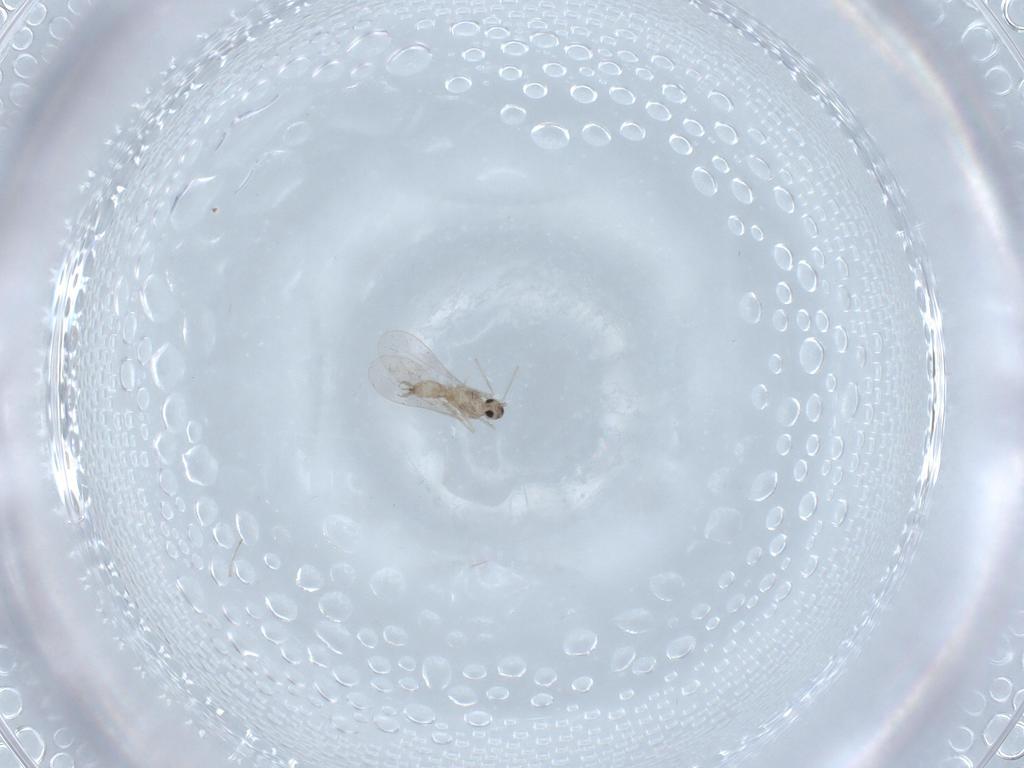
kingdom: Animalia
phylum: Arthropoda
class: Insecta
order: Diptera
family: Cecidomyiidae
